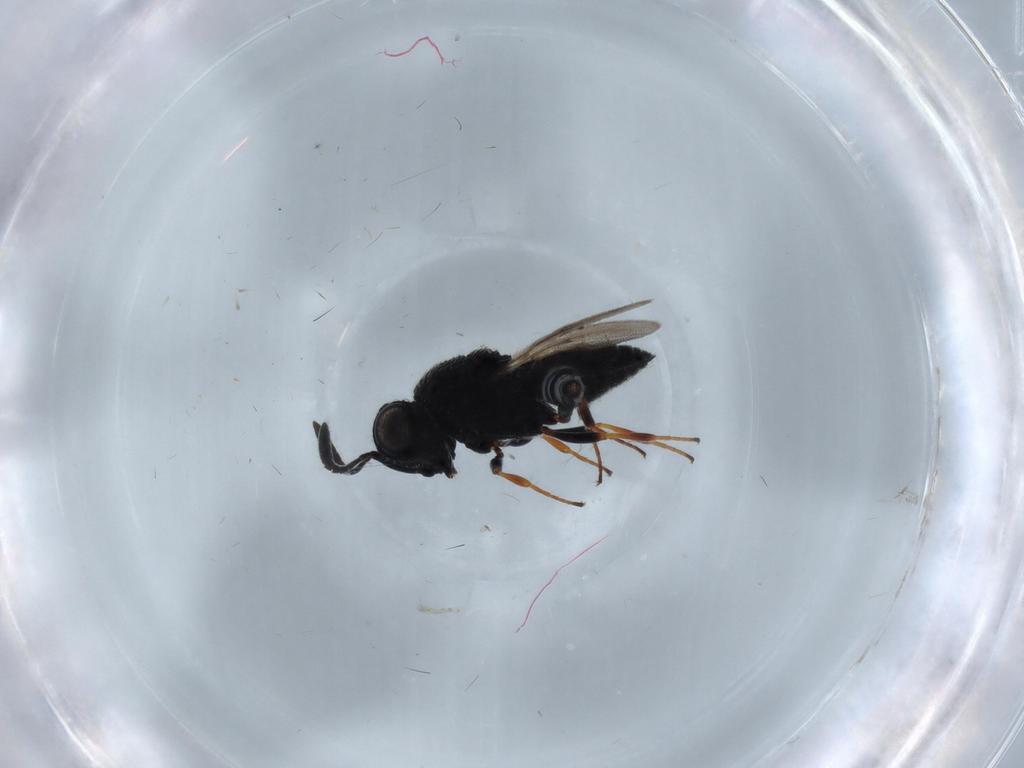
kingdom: Animalia
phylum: Arthropoda
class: Insecta
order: Hymenoptera
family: Scelionidae
